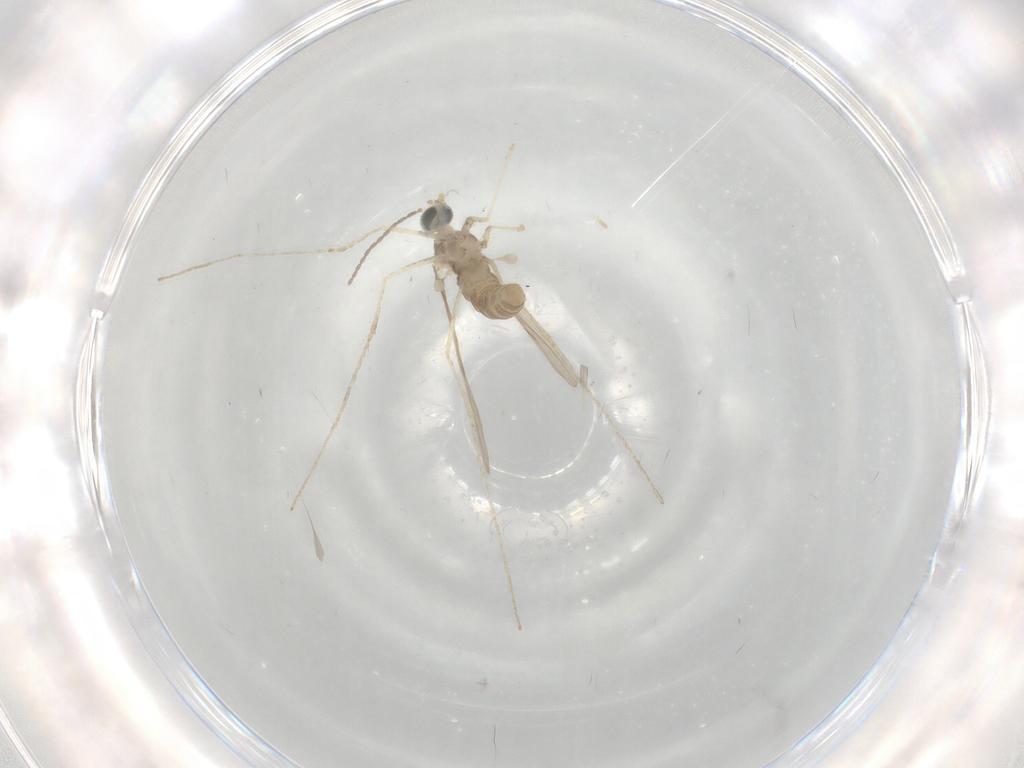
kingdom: Animalia
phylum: Arthropoda
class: Insecta
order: Diptera
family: Cecidomyiidae
